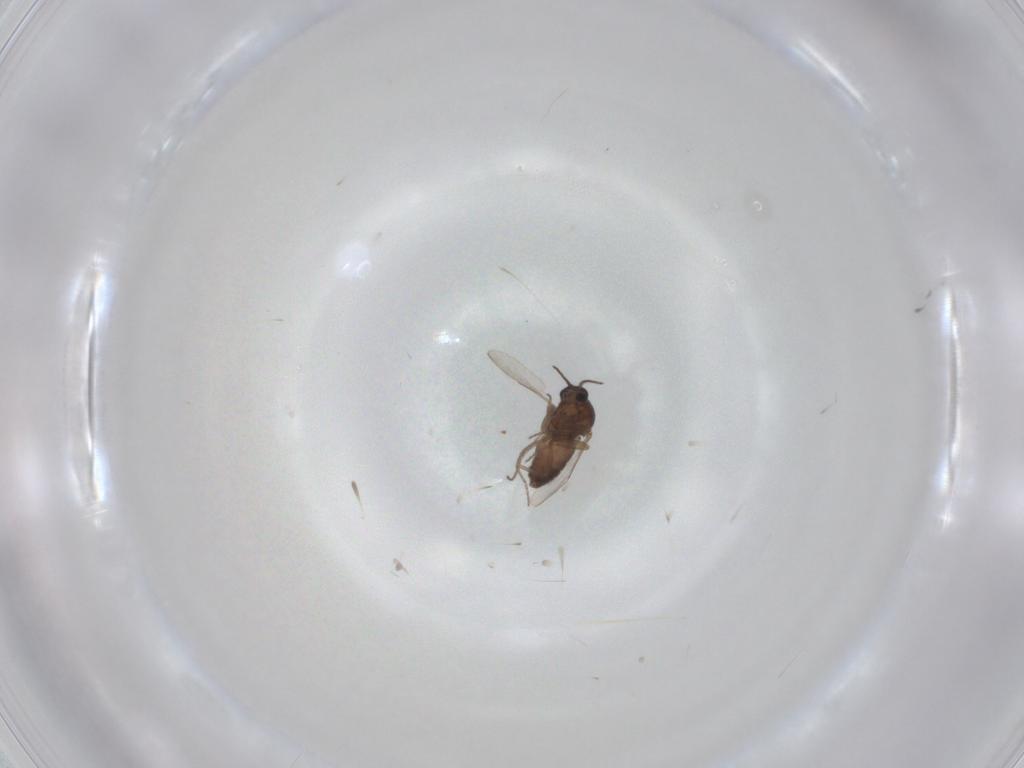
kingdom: Animalia
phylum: Arthropoda
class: Insecta
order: Diptera
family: Ceratopogonidae
